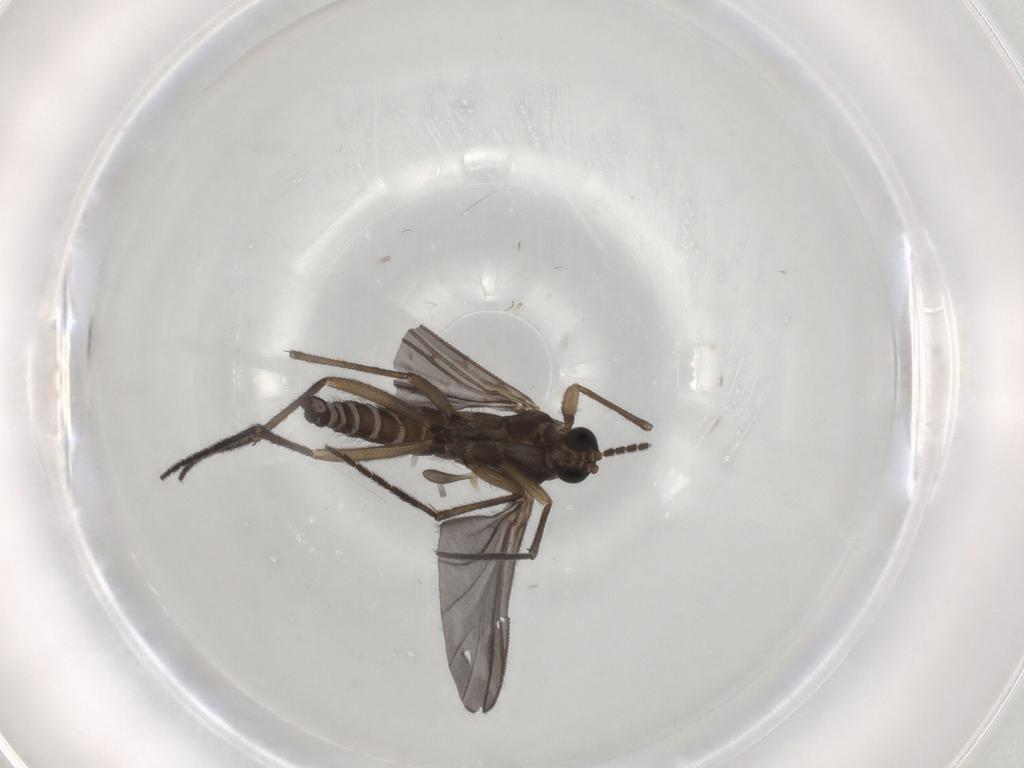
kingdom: Animalia
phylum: Arthropoda
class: Insecta
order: Diptera
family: Sciaridae
